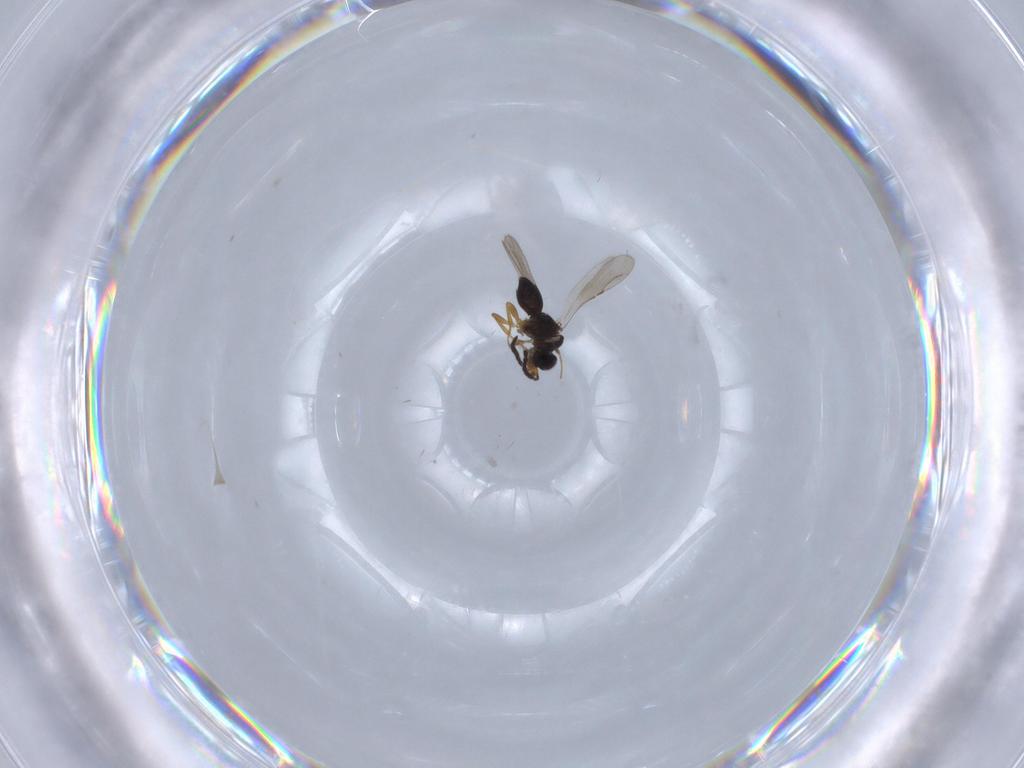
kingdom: Animalia
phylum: Arthropoda
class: Insecta
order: Hymenoptera
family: Ceraphronidae
